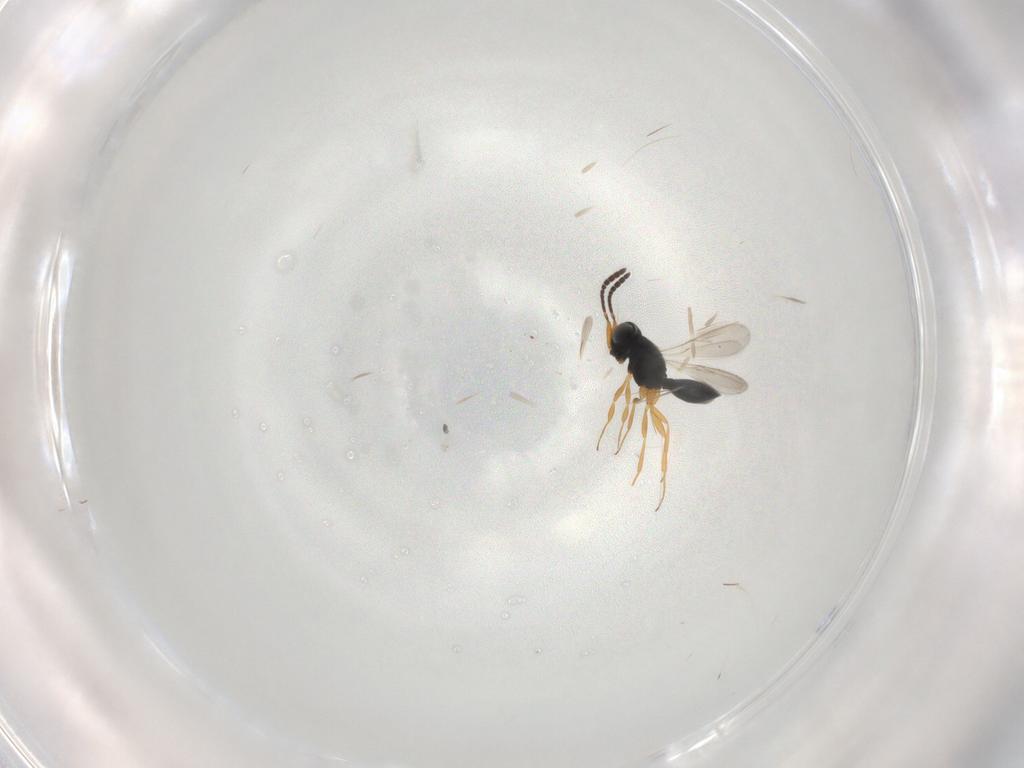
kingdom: Animalia
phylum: Arthropoda
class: Insecta
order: Hymenoptera
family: Scelionidae
